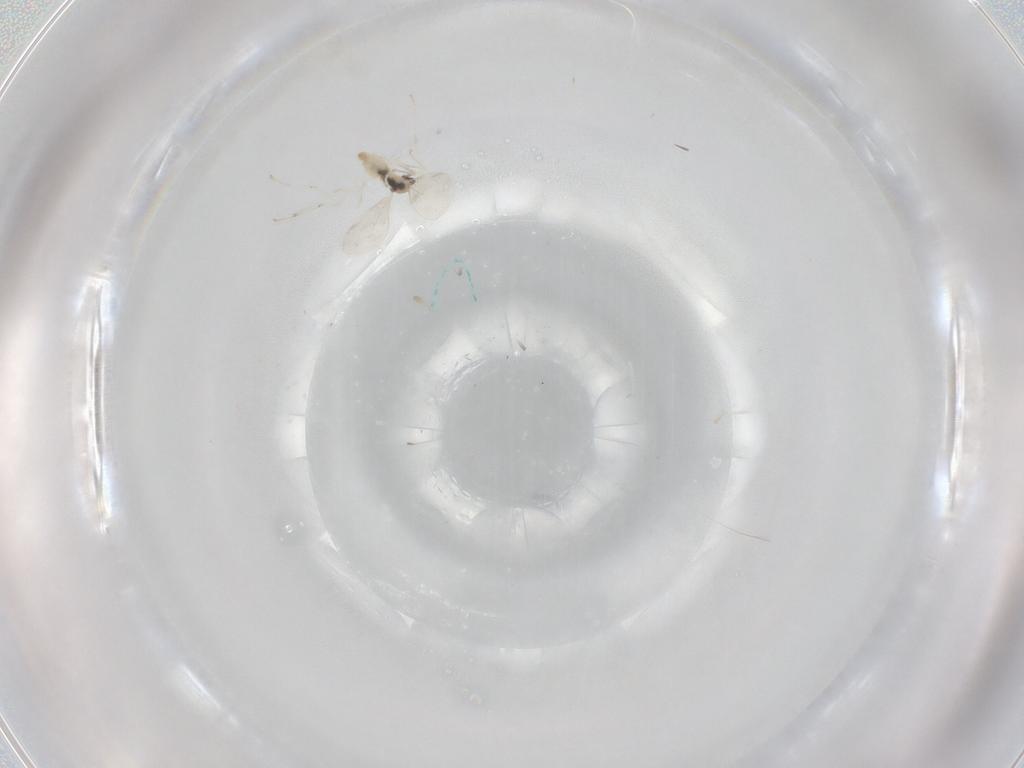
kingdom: Animalia
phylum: Arthropoda
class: Insecta
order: Diptera
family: Cecidomyiidae
